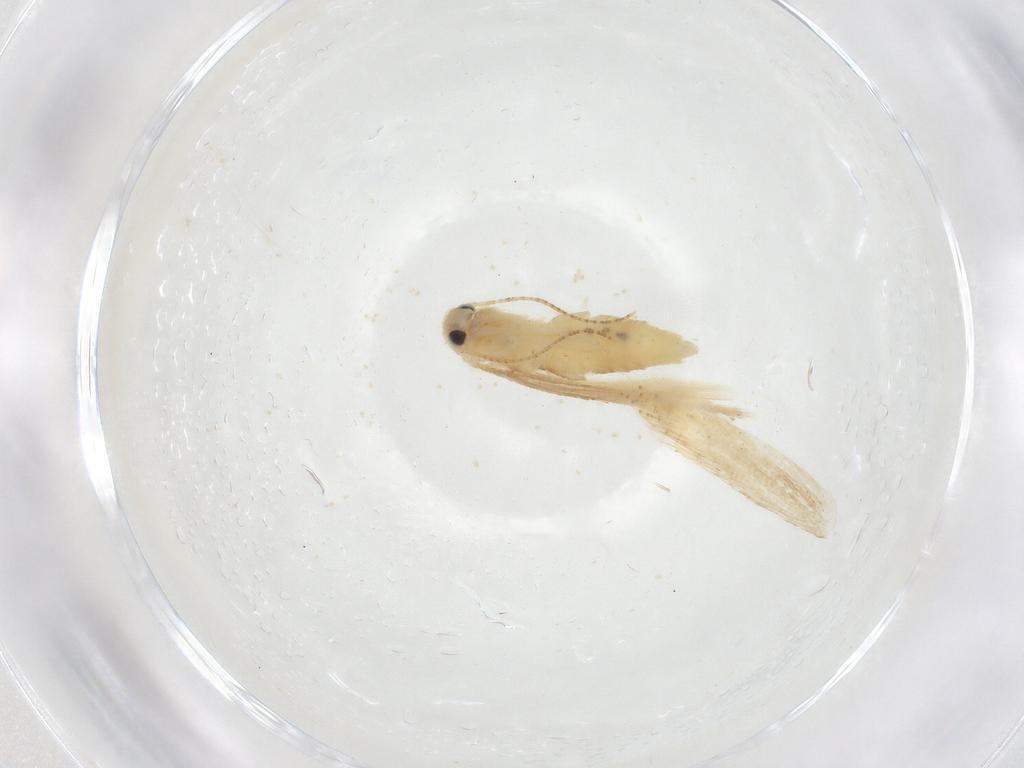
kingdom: Animalia
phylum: Arthropoda
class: Insecta
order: Lepidoptera
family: Depressariidae
